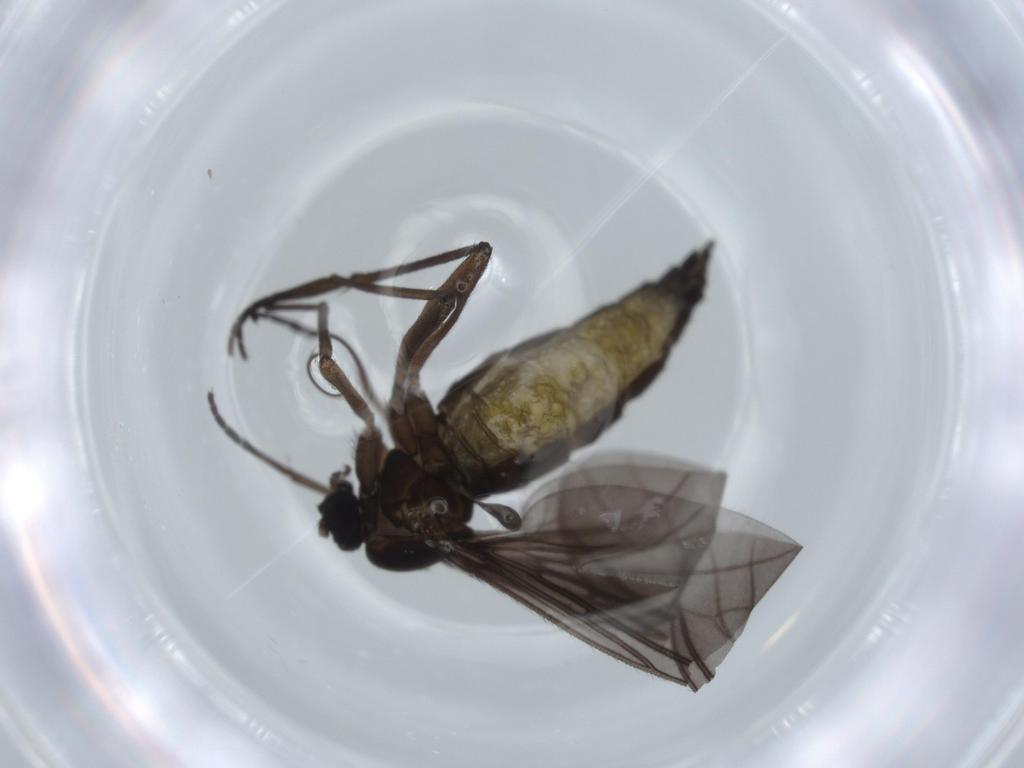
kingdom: Animalia
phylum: Arthropoda
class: Insecta
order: Diptera
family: Sciaridae
